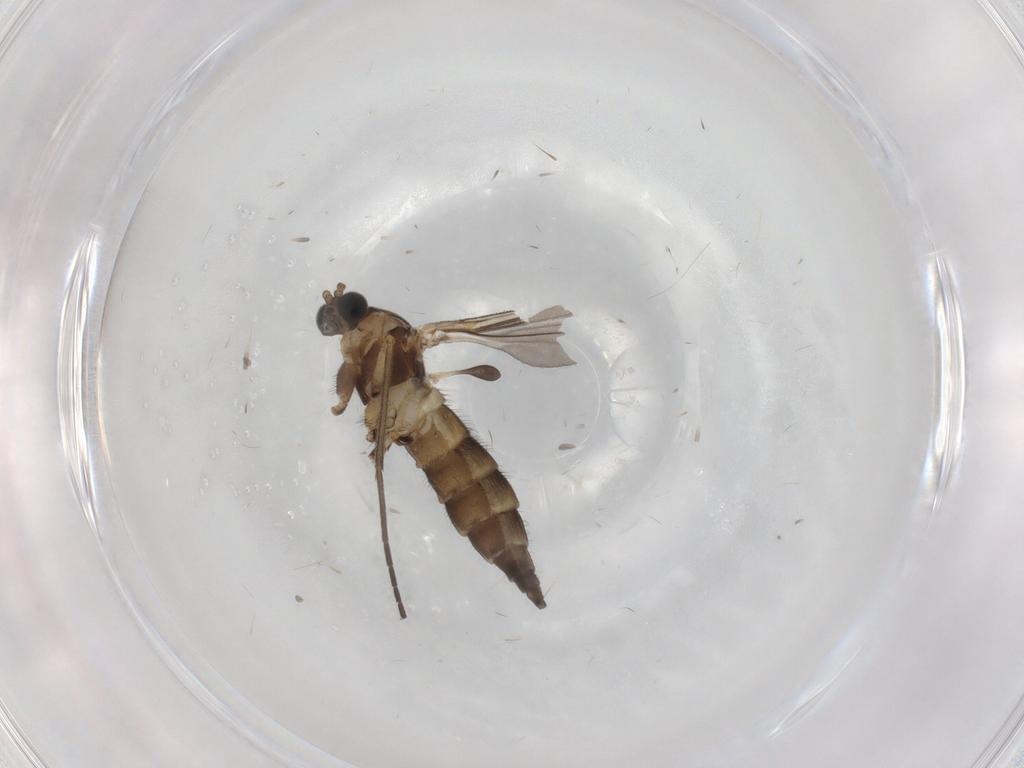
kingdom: Animalia
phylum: Arthropoda
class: Insecta
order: Diptera
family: Sciaridae
